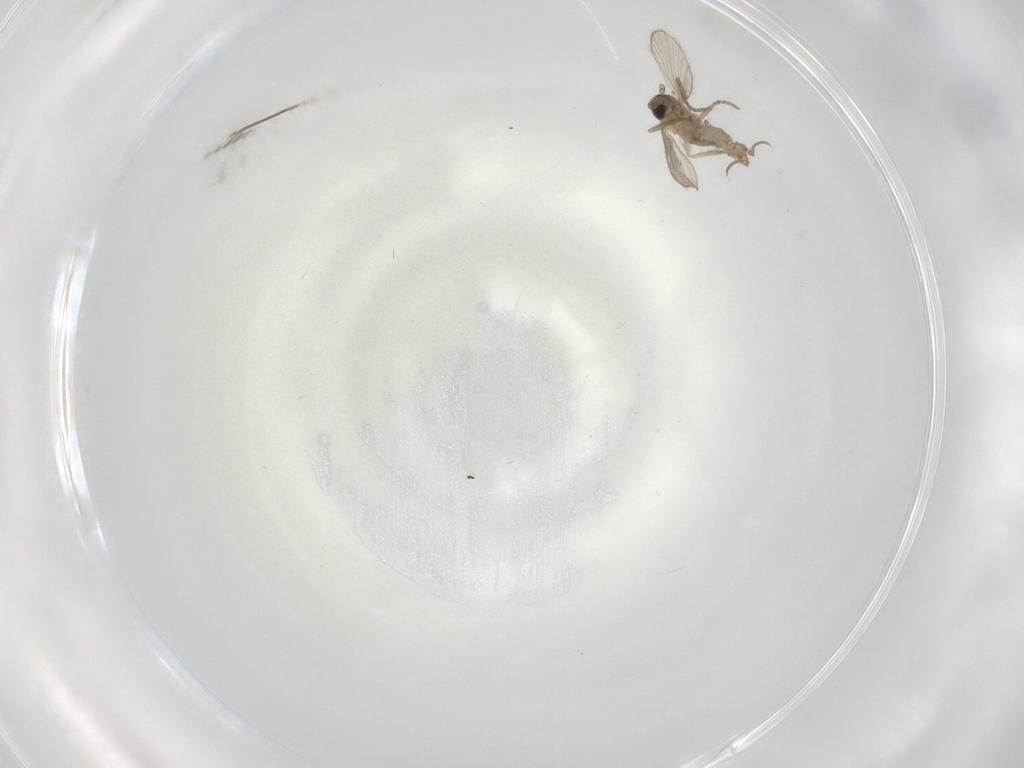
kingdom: Animalia
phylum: Arthropoda
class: Insecta
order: Diptera
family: Psychodidae
